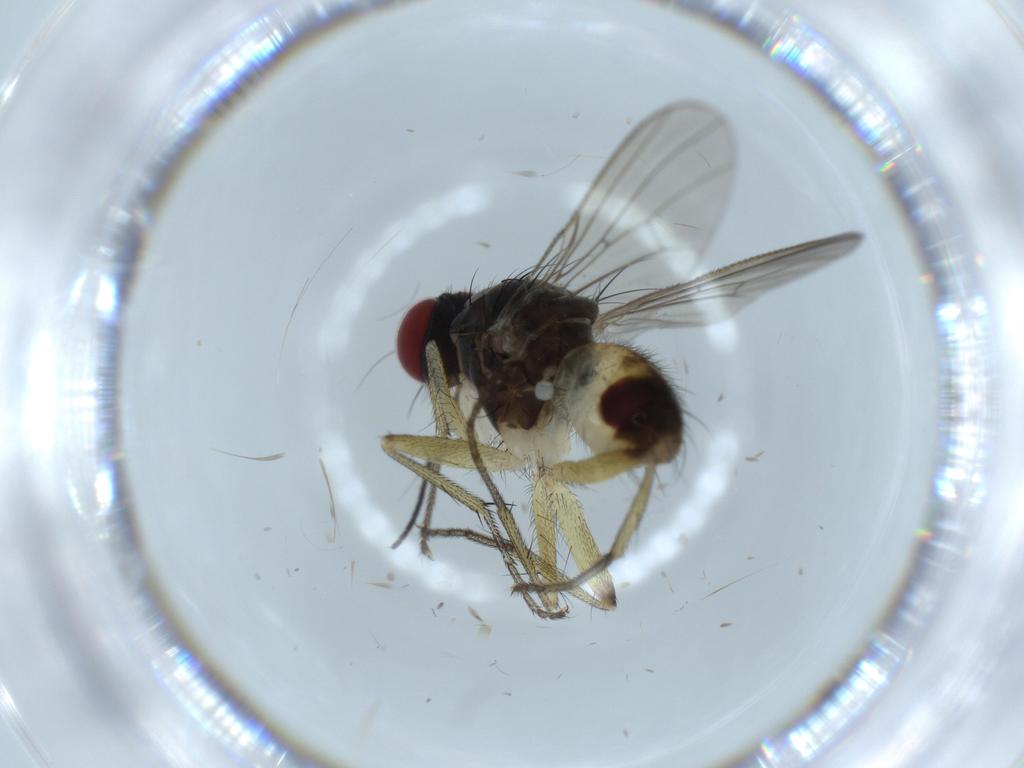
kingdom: Animalia
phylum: Arthropoda
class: Insecta
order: Diptera
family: Muscidae
